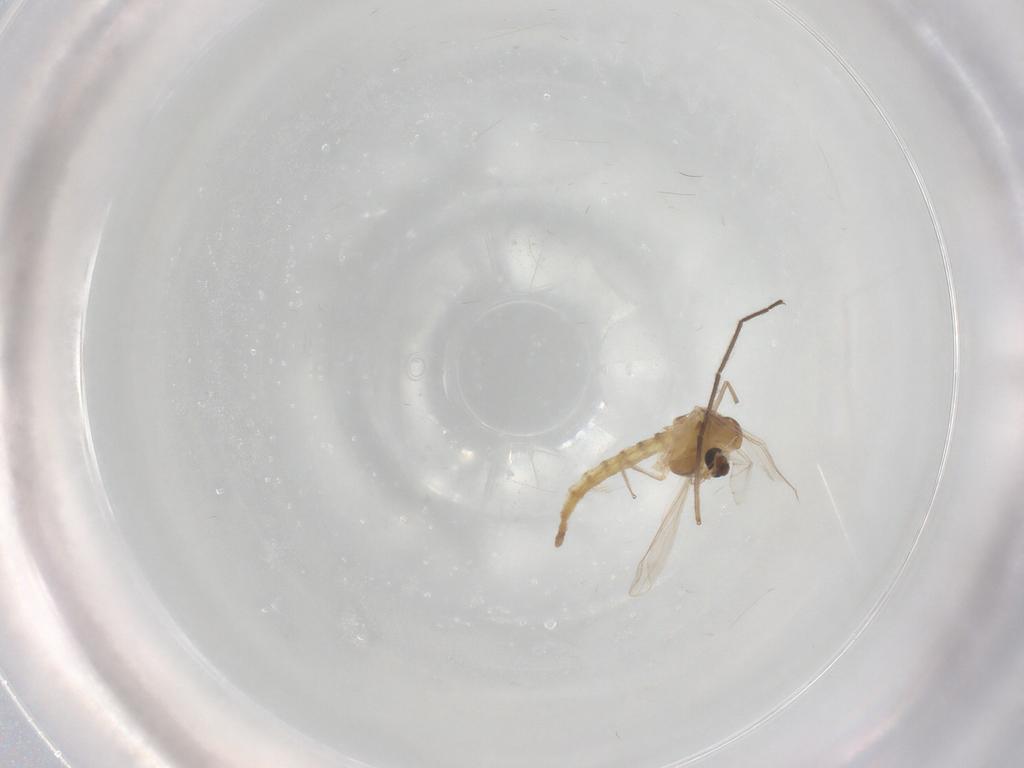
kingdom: Animalia
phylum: Arthropoda
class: Insecta
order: Diptera
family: Chironomidae
